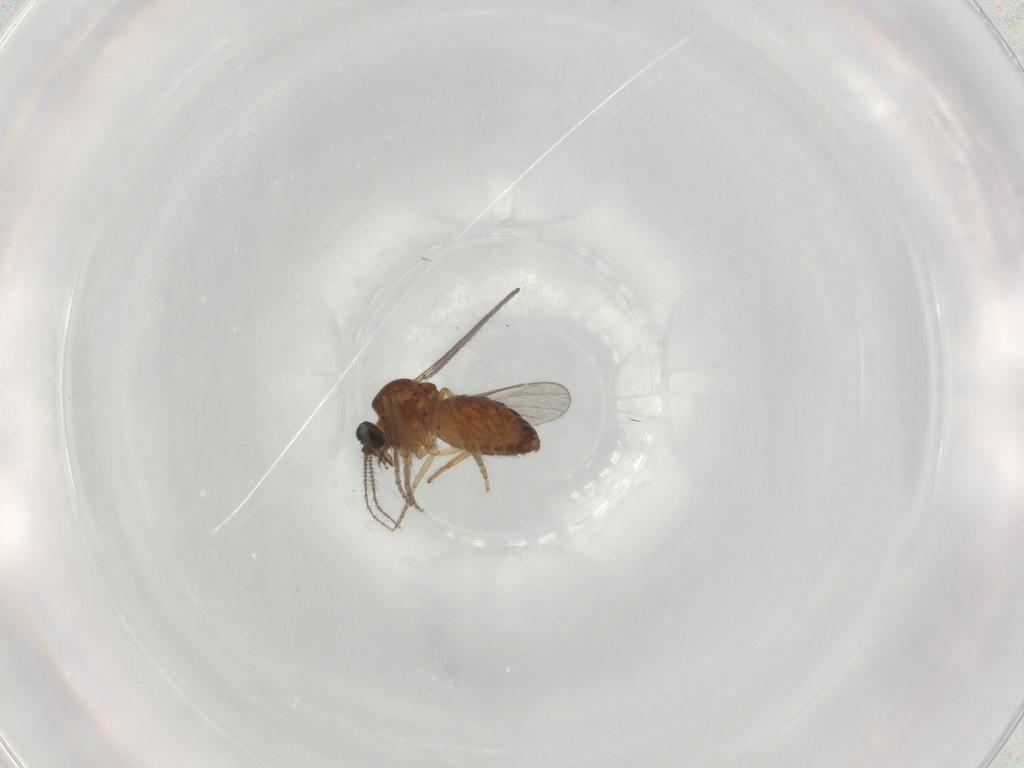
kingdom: Animalia
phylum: Arthropoda
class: Insecta
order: Diptera
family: Ceratopogonidae
